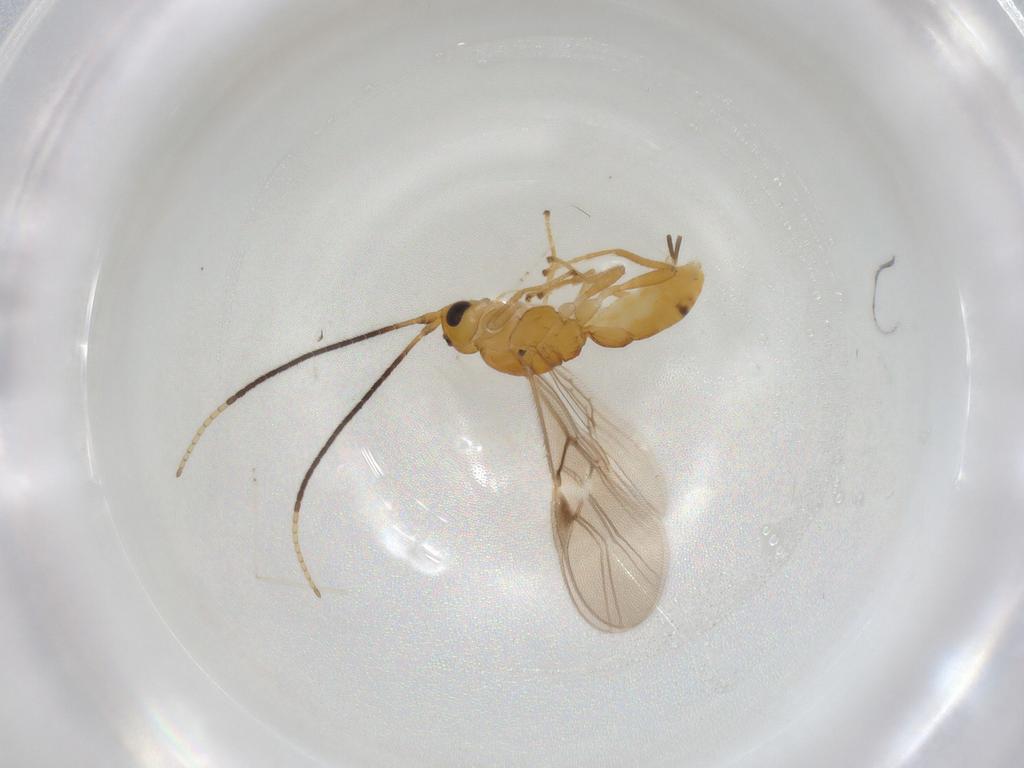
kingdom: Animalia
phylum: Arthropoda
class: Insecta
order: Hymenoptera
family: Braconidae
